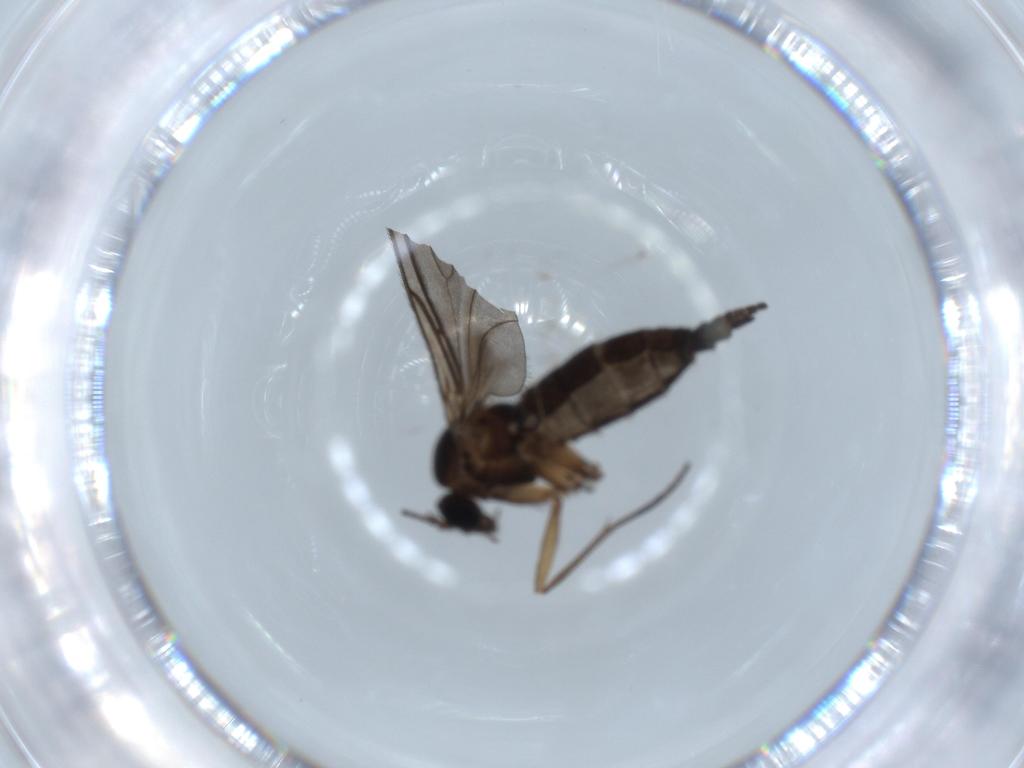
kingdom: Animalia
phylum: Arthropoda
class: Insecta
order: Diptera
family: Sciaridae
